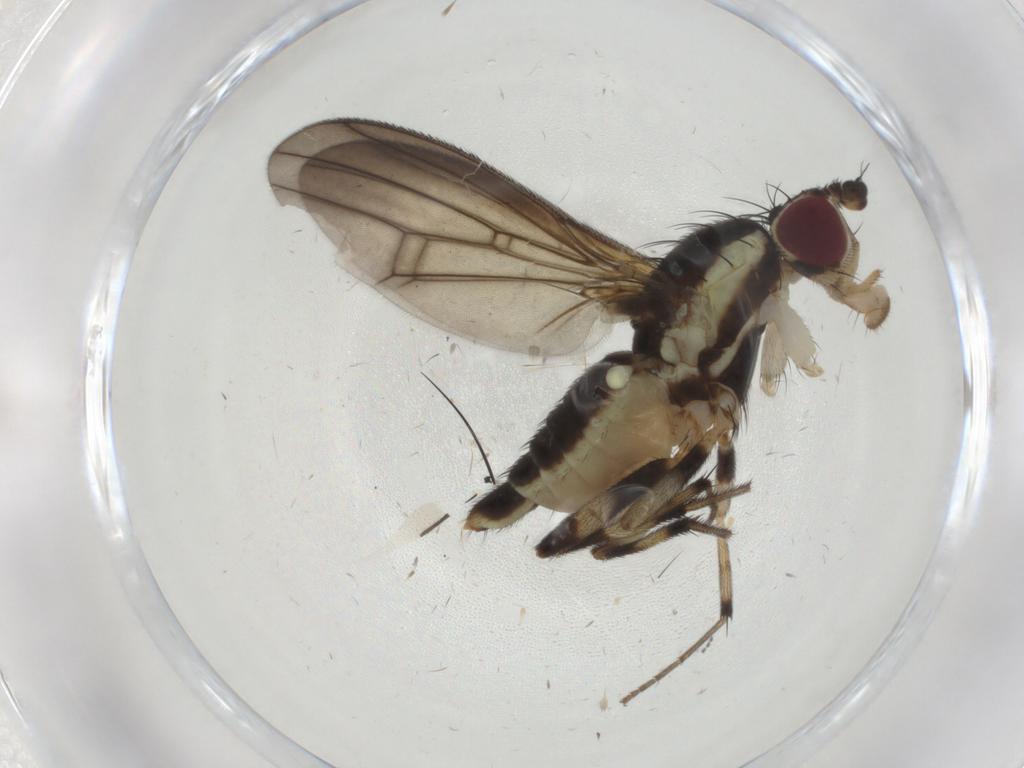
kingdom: Animalia
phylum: Arthropoda
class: Insecta
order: Diptera
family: Pseudopomyzidae
